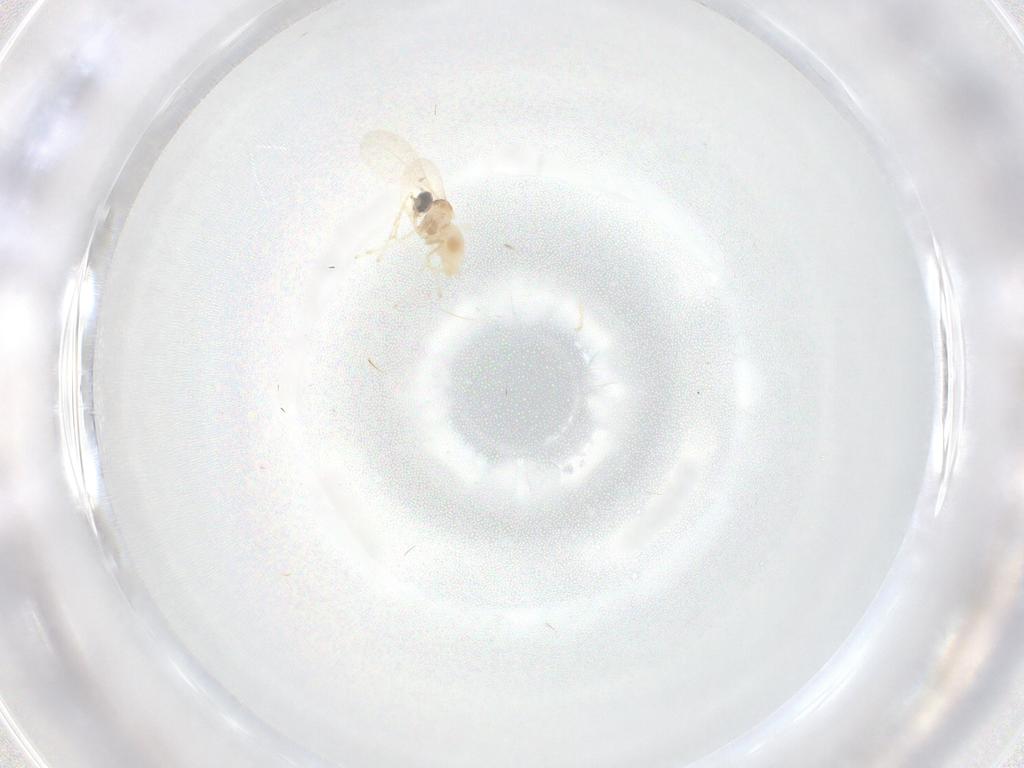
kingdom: Animalia
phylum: Arthropoda
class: Insecta
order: Diptera
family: Cecidomyiidae
